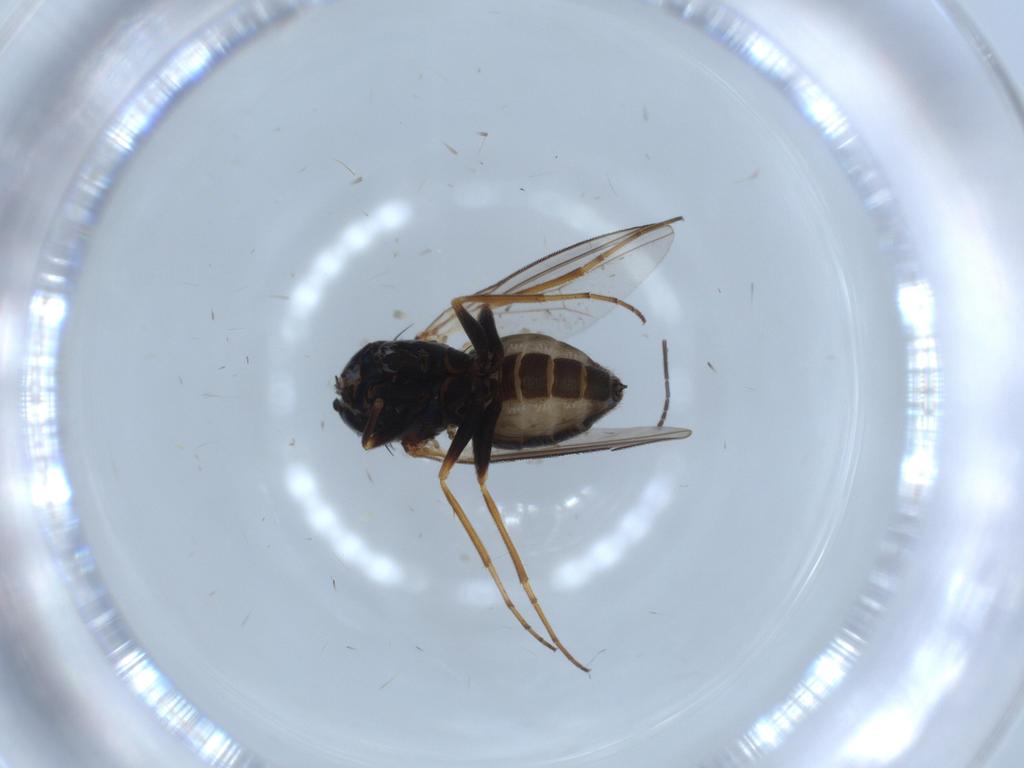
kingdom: Animalia
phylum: Arthropoda
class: Insecta
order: Diptera
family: Dolichopodidae
